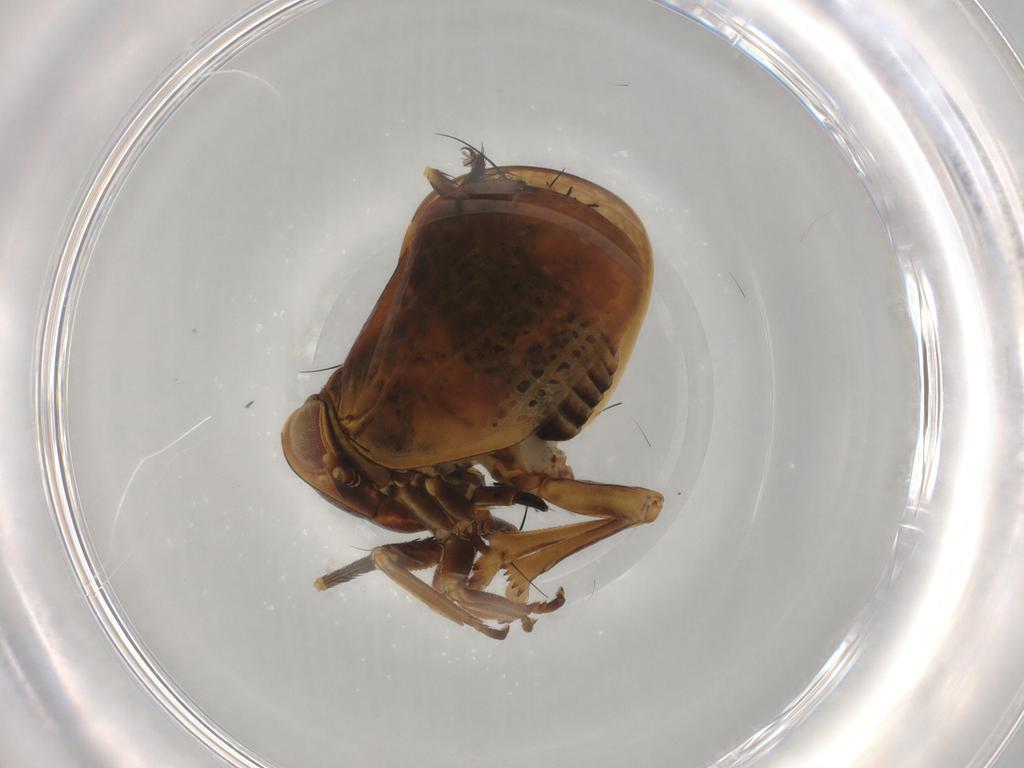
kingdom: Animalia
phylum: Arthropoda
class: Insecta
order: Hemiptera
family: Nogodinidae
